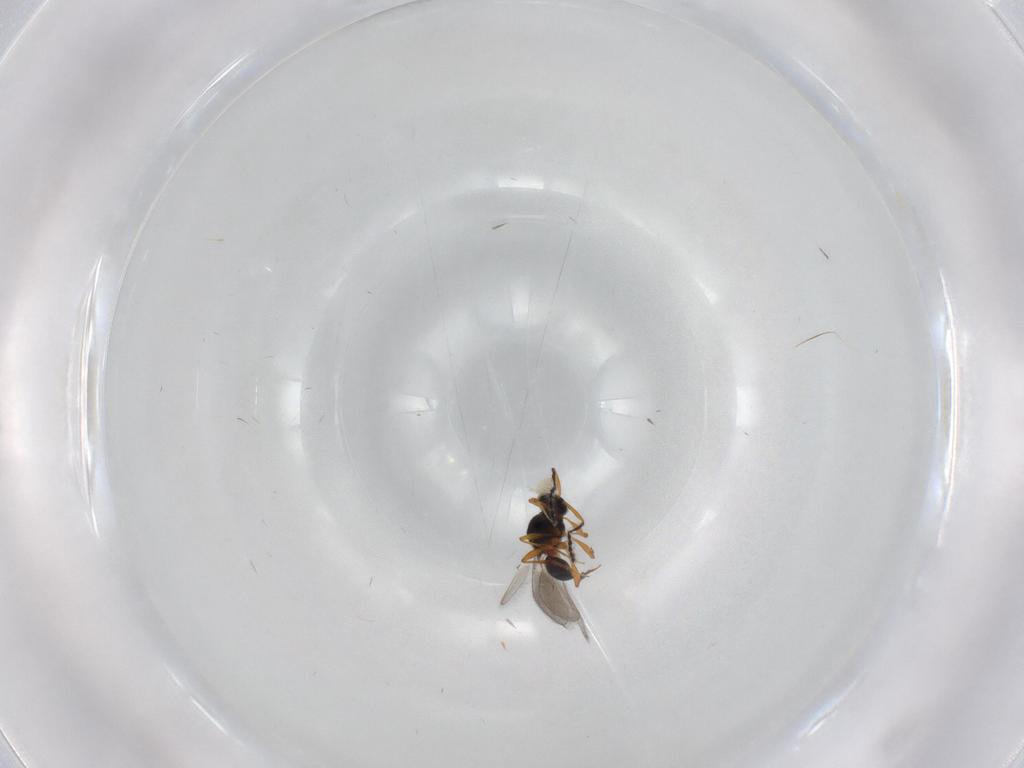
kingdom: Animalia
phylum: Arthropoda
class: Insecta
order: Hymenoptera
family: Platygastridae
